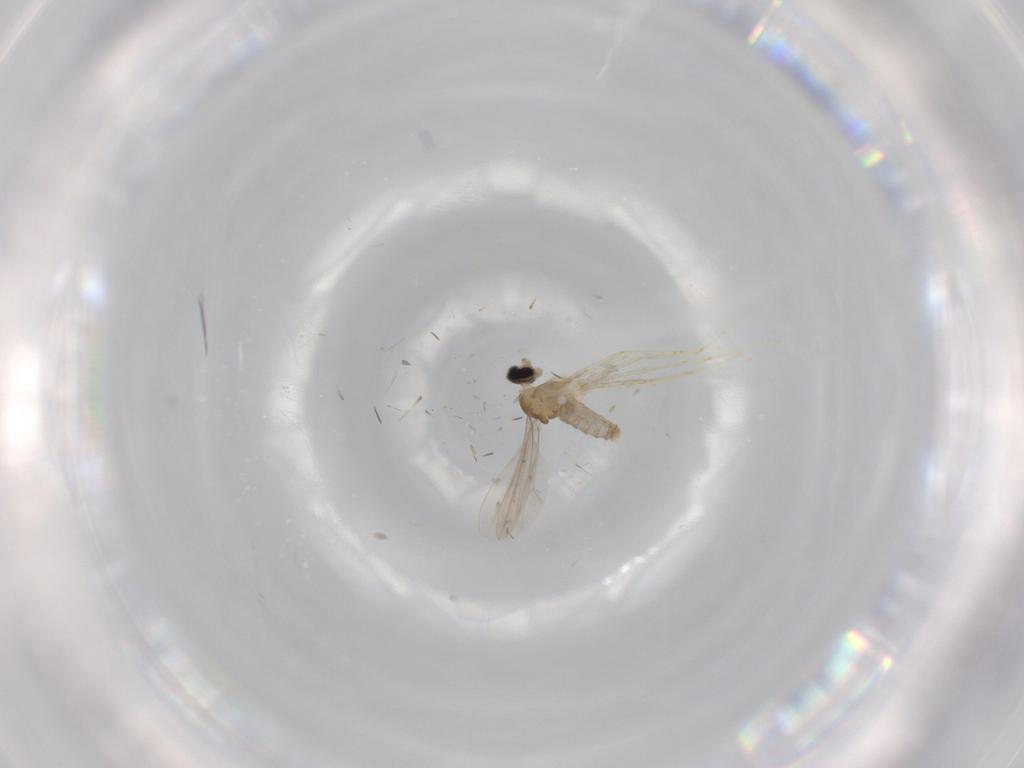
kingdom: Animalia
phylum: Arthropoda
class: Insecta
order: Diptera
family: Cecidomyiidae
